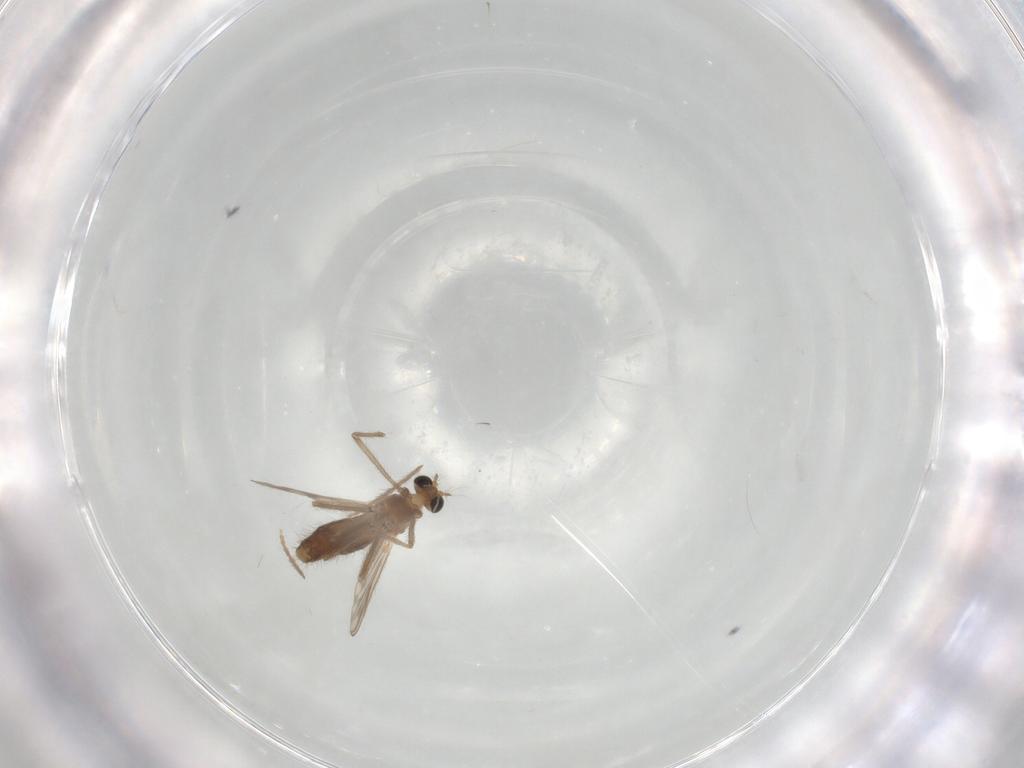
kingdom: Animalia
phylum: Arthropoda
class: Insecta
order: Diptera
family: Chironomidae
